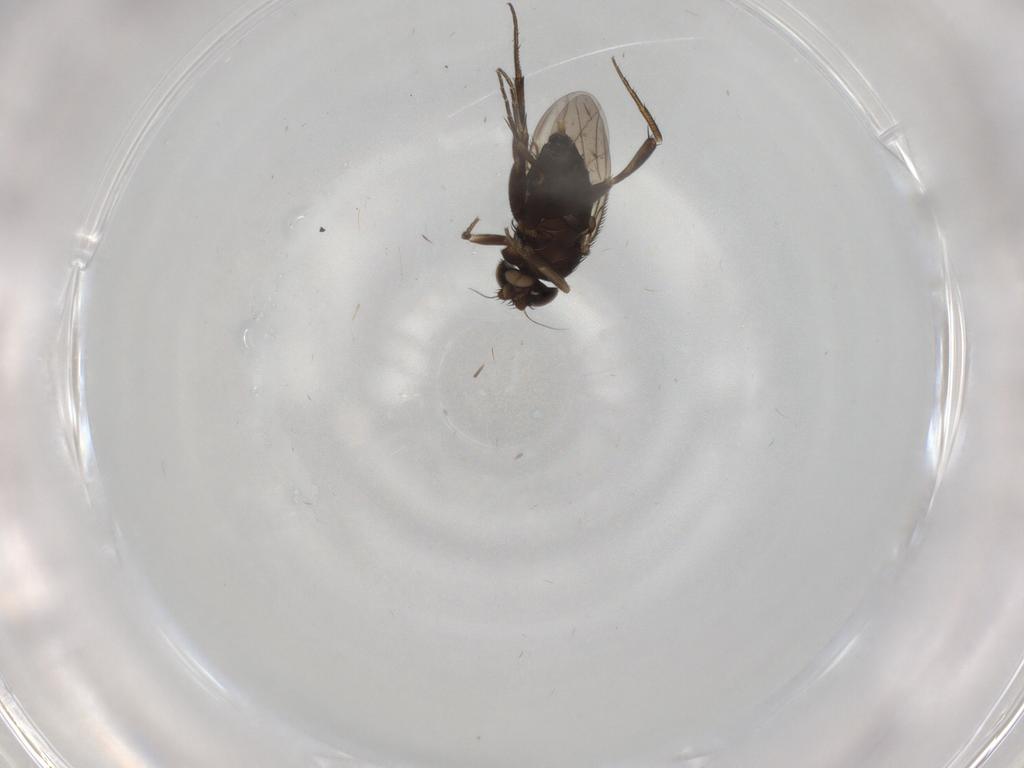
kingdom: Animalia
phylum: Arthropoda
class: Insecta
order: Diptera
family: Phoridae
